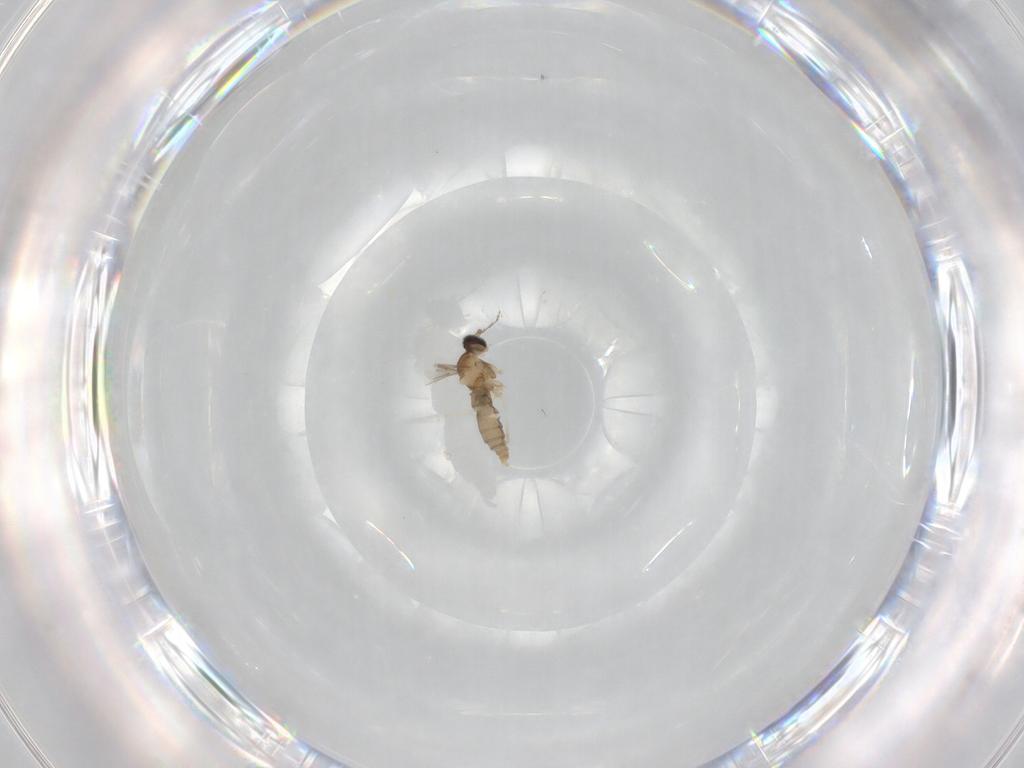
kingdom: Animalia
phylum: Arthropoda
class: Insecta
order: Diptera
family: Cecidomyiidae
